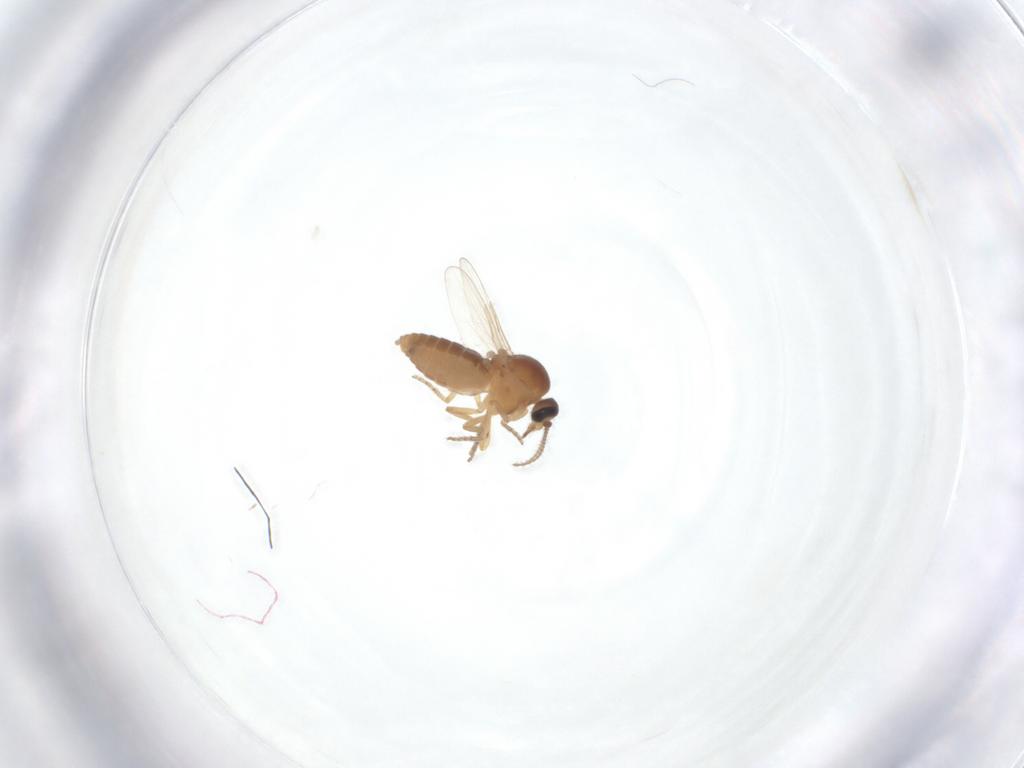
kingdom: Animalia
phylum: Arthropoda
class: Insecta
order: Diptera
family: Ceratopogonidae
